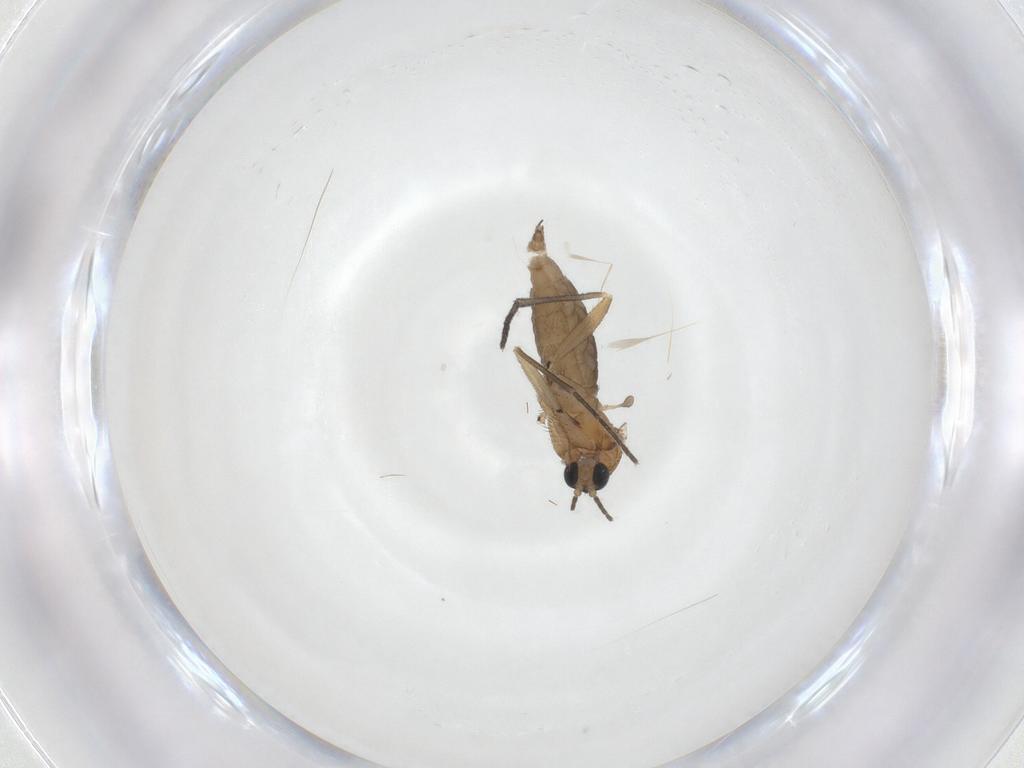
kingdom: Animalia
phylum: Arthropoda
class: Insecta
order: Diptera
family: Sciaridae
